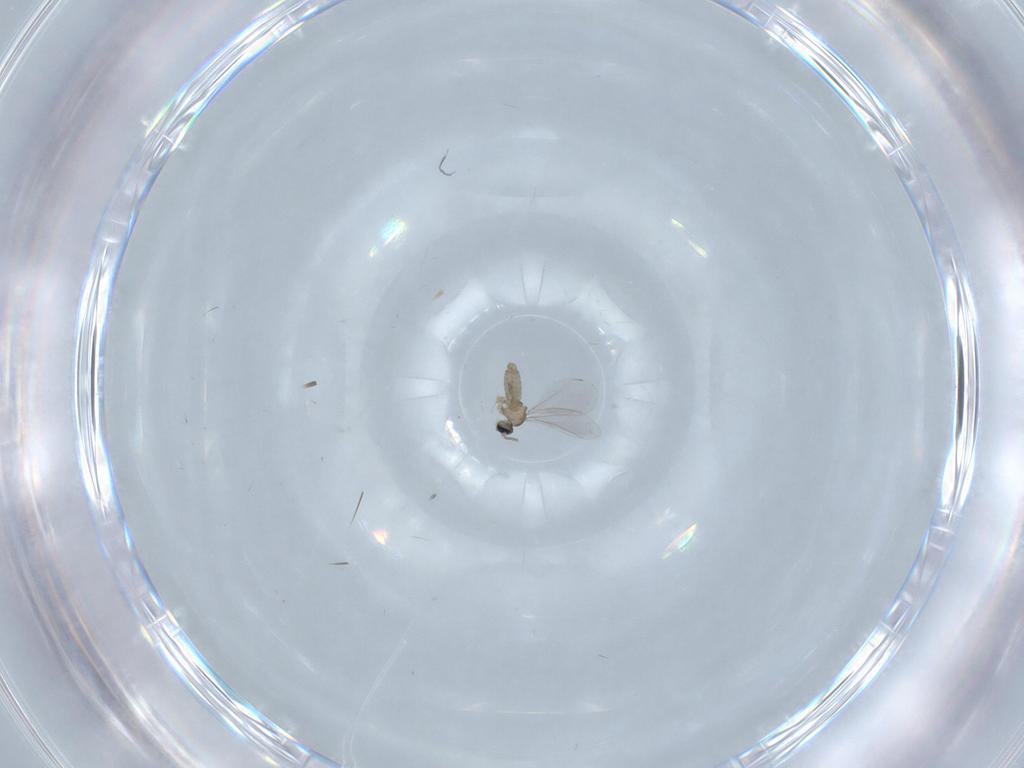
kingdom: Animalia
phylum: Arthropoda
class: Insecta
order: Diptera
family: Cecidomyiidae
